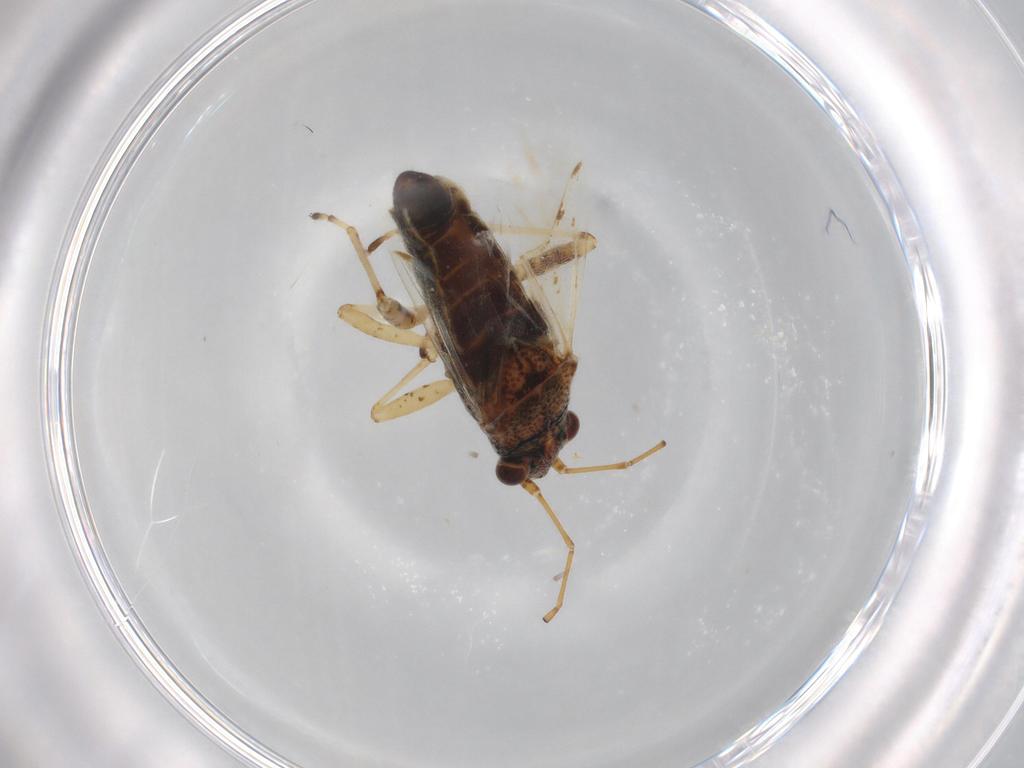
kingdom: Animalia
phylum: Arthropoda
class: Insecta
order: Hemiptera
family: Lygaeidae
